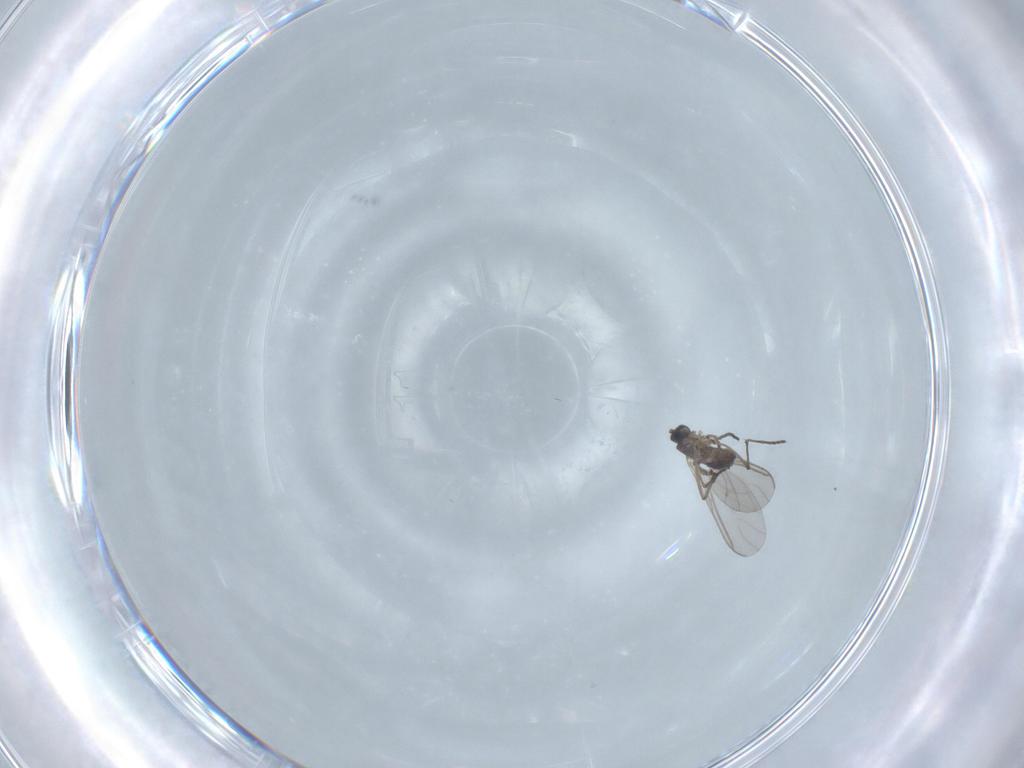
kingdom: Animalia
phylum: Arthropoda
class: Insecta
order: Diptera
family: Sciaridae
